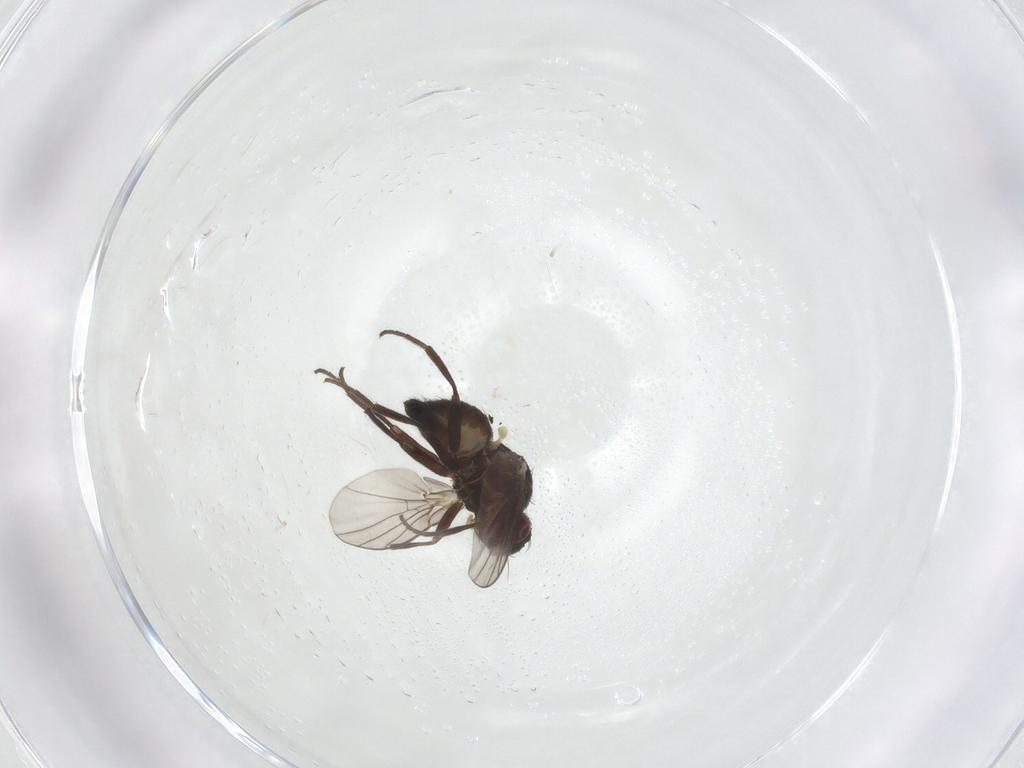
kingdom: Animalia
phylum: Arthropoda
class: Insecta
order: Diptera
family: Agromyzidae
